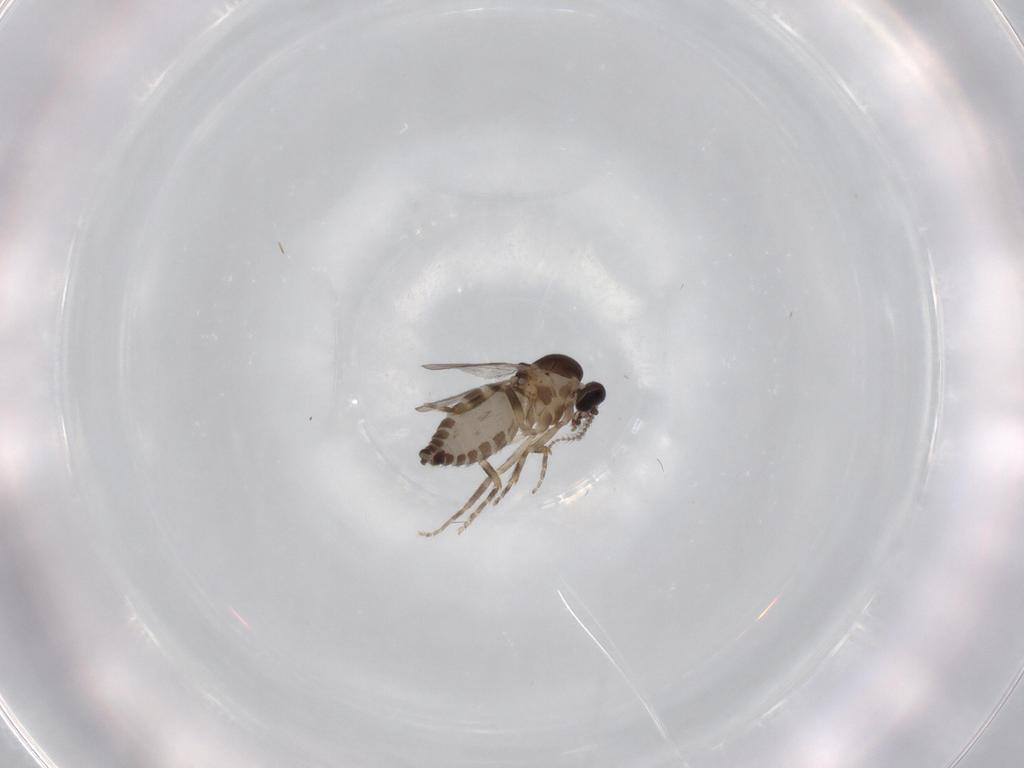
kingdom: Animalia
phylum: Arthropoda
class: Insecta
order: Diptera
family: Ceratopogonidae
